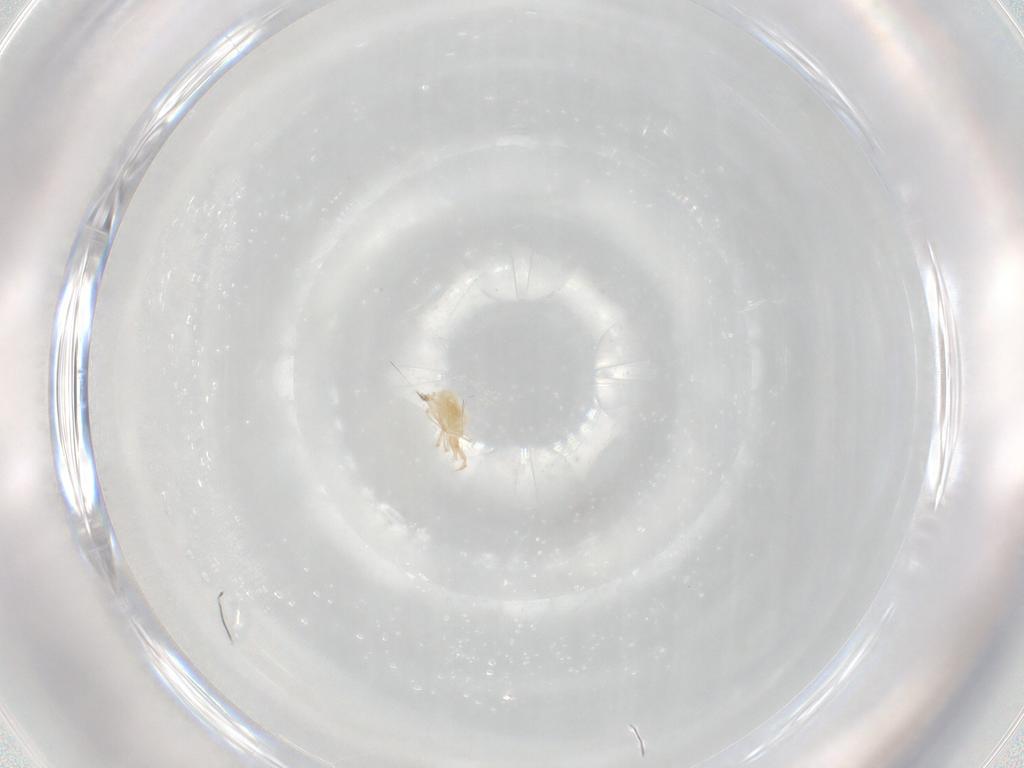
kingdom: Animalia
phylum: Arthropoda
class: Arachnida
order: Trombidiformes
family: Cunaxidae
